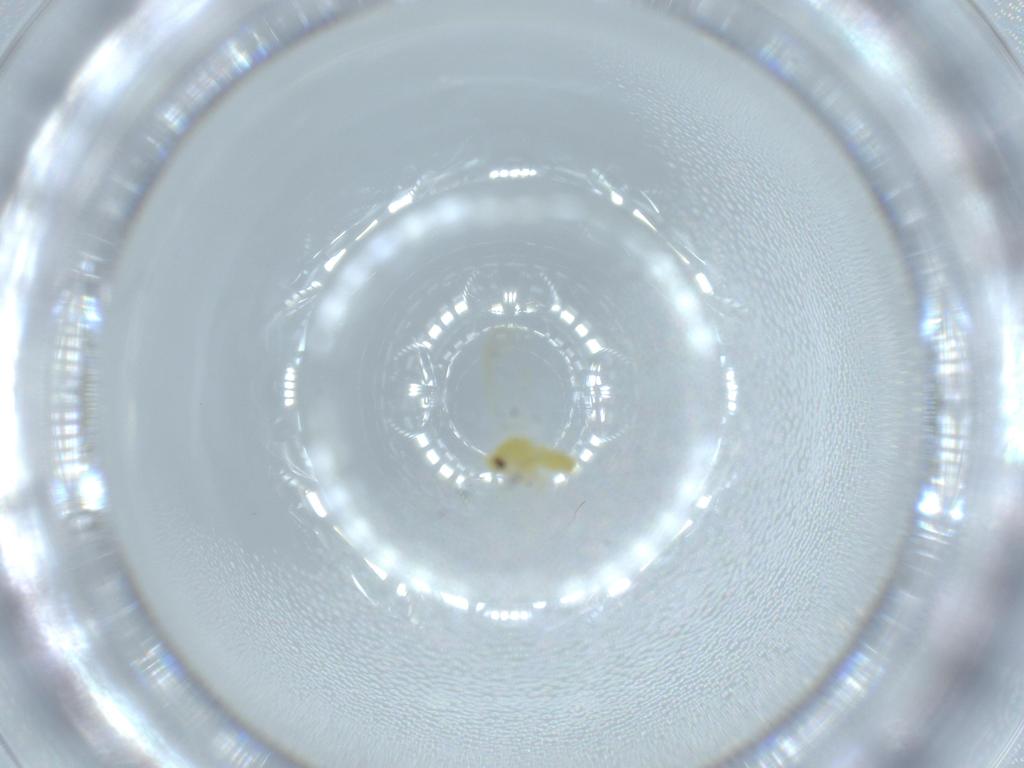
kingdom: Animalia
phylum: Arthropoda
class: Insecta
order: Hemiptera
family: Aleyrodidae
